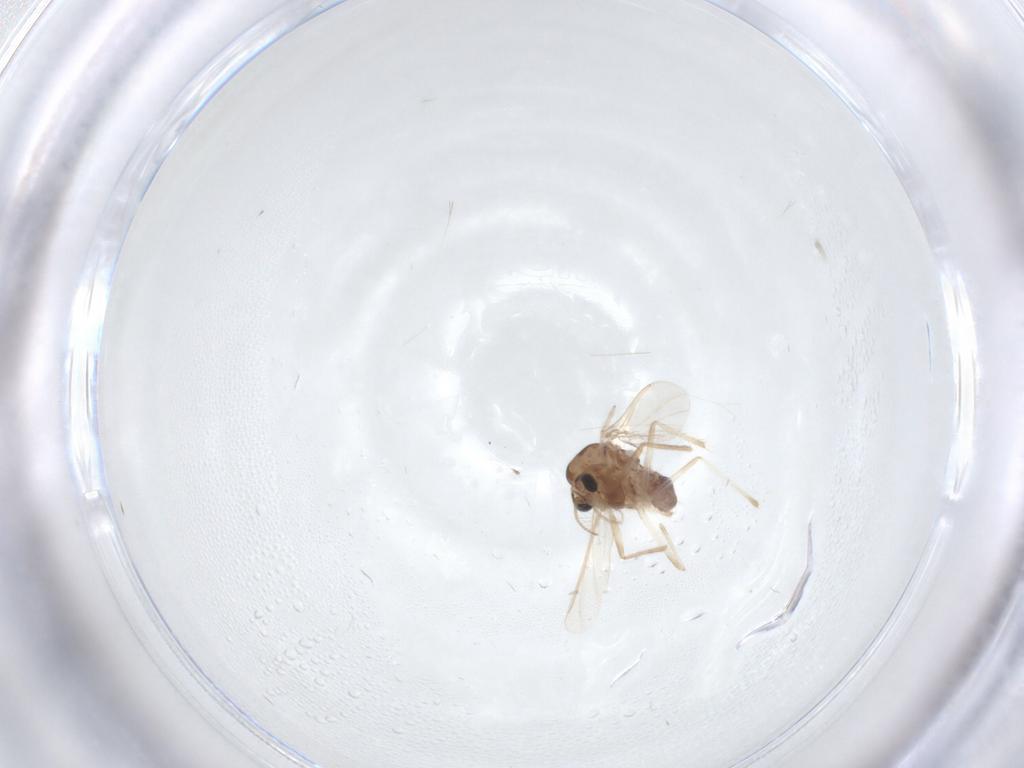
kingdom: Animalia
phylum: Arthropoda
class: Insecta
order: Diptera
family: Chironomidae
